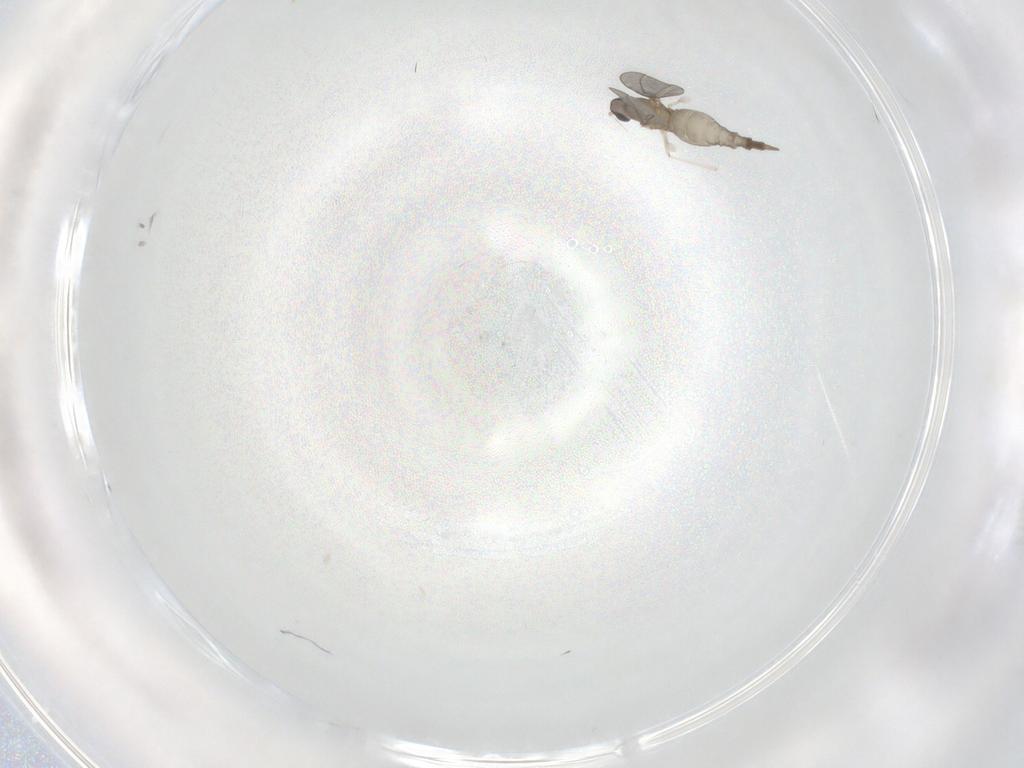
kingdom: Animalia
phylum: Arthropoda
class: Insecta
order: Diptera
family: Cecidomyiidae
